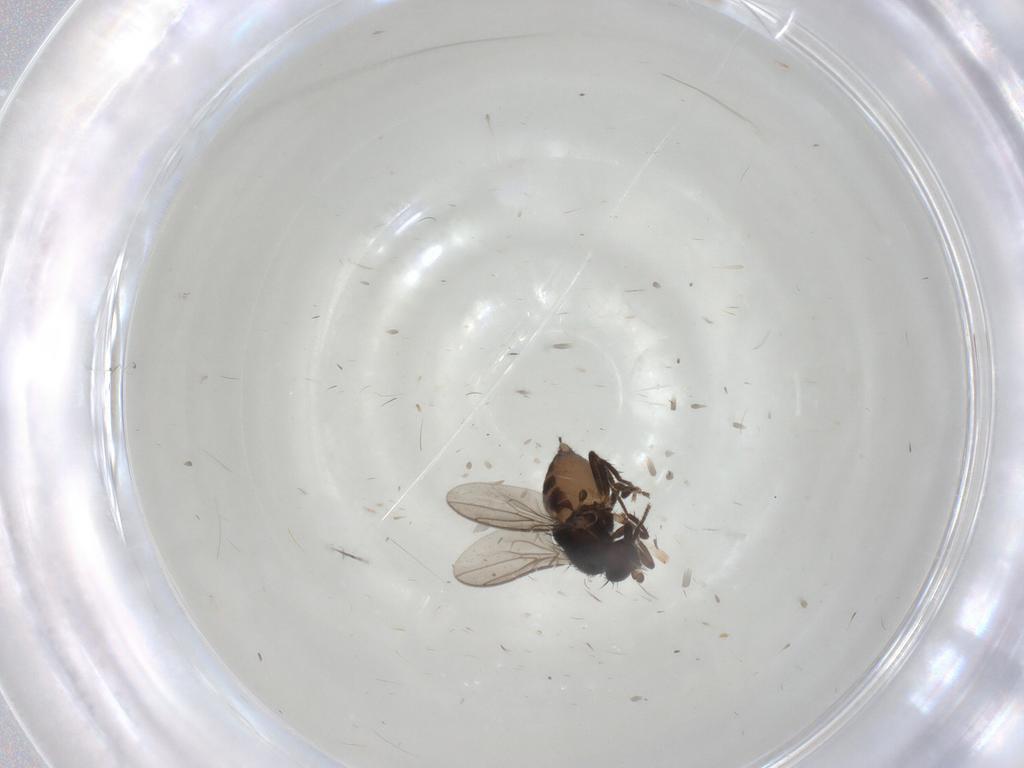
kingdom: Animalia
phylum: Arthropoda
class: Insecta
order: Diptera
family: Sphaeroceridae
